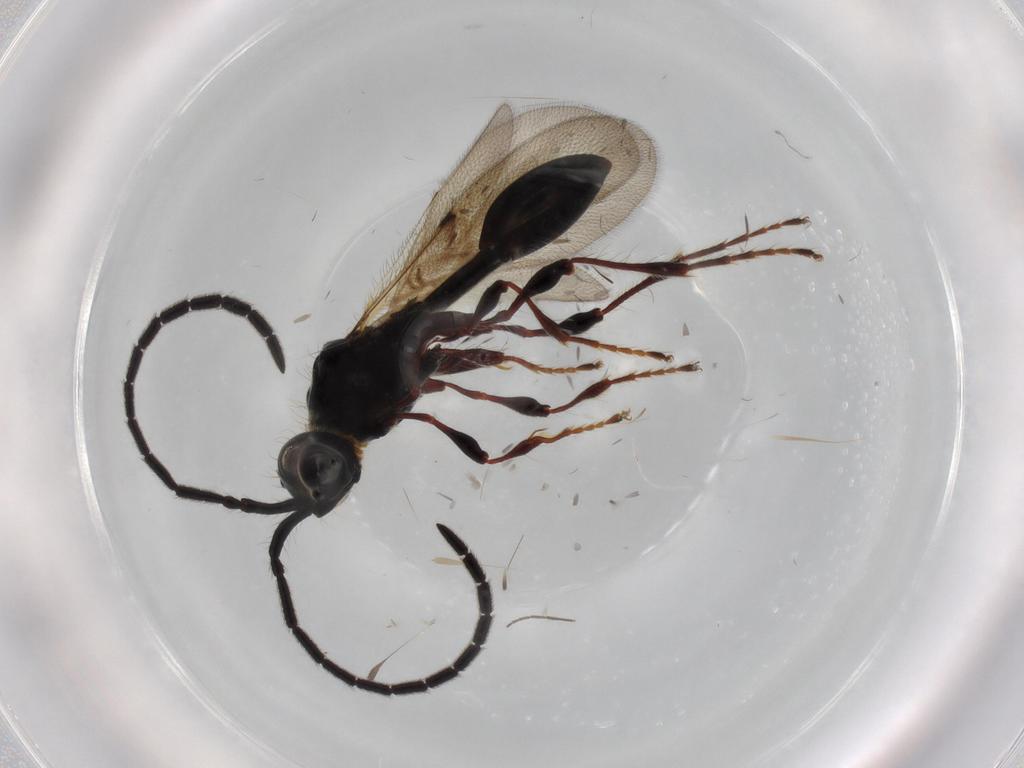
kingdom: Animalia
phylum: Arthropoda
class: Insecta
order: Hymenoptera
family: Diapriidae
